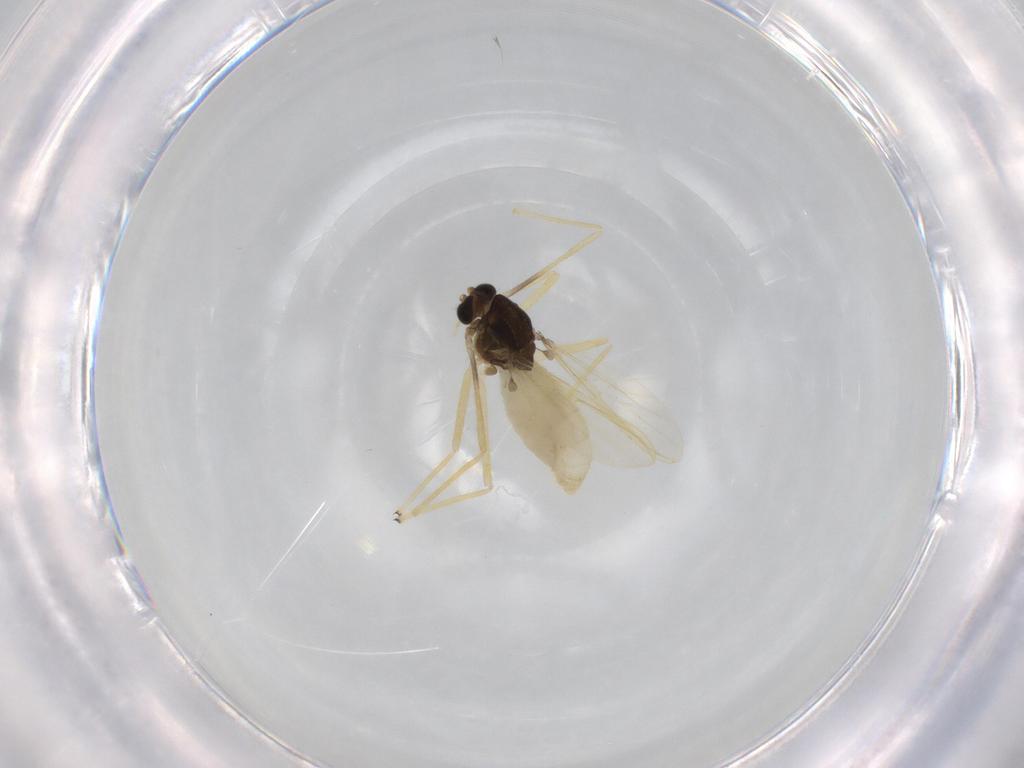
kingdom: Animalia
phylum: Arthropoda
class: Insecta
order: Diptera
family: Chironomidae
